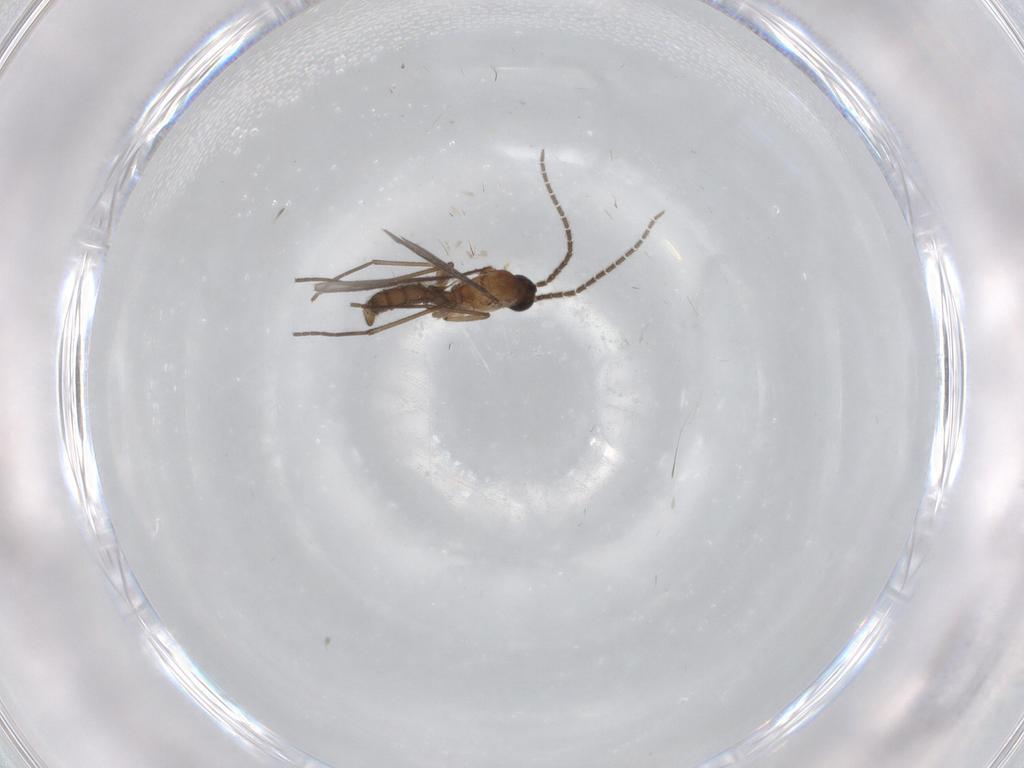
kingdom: Animalia
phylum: Arthropoda
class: Insecta
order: Diptera
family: Sciaridae
